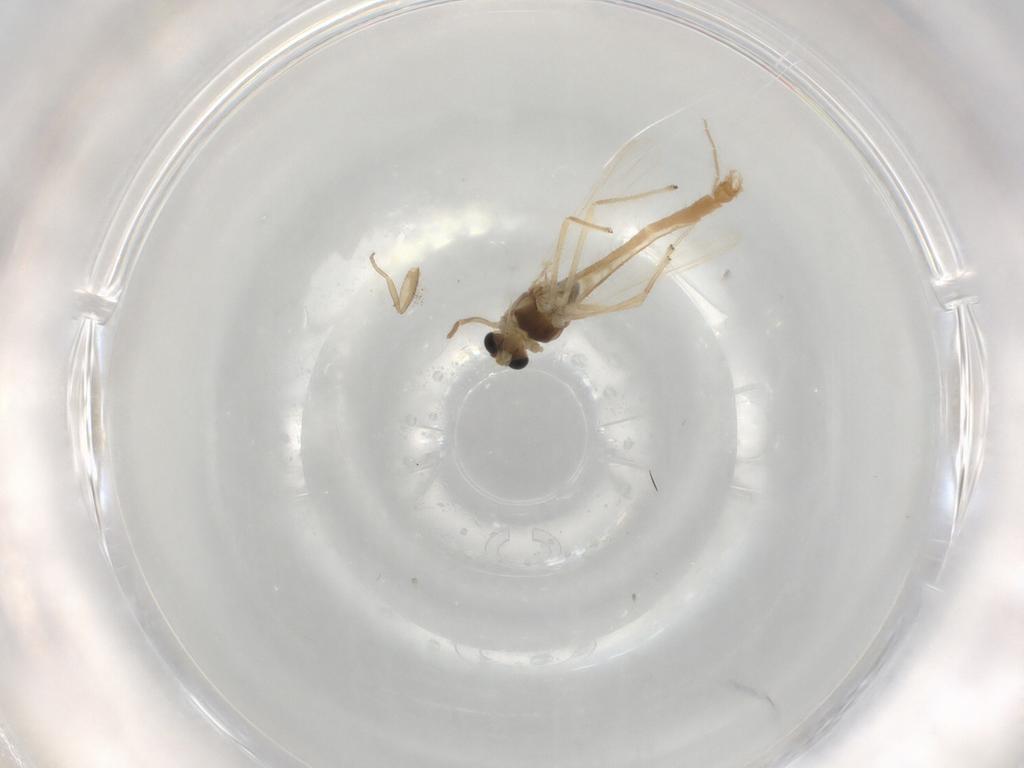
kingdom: Animalia
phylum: Arthropoda
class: Insecta
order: Diptera
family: Chironomidae
